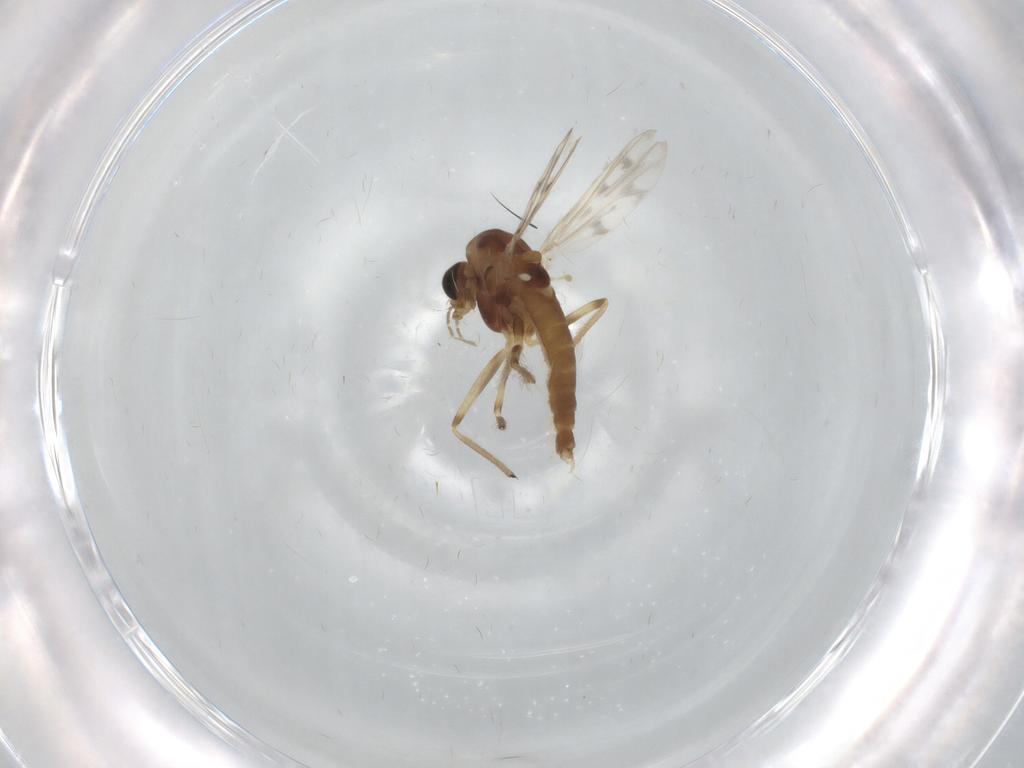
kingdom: Animalia
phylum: Arthropoda
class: Insecta
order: Diptera
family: Chironomidae
